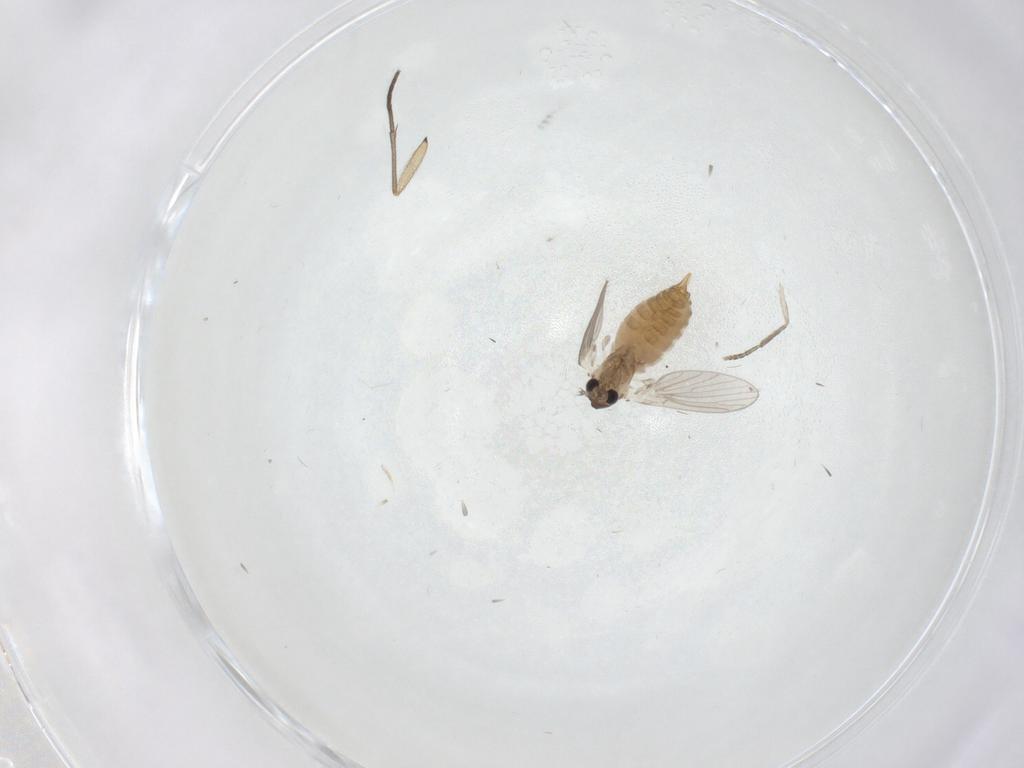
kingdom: Animalia
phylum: Arthropoda
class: Insecta
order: Diptera
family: Sciaridae
